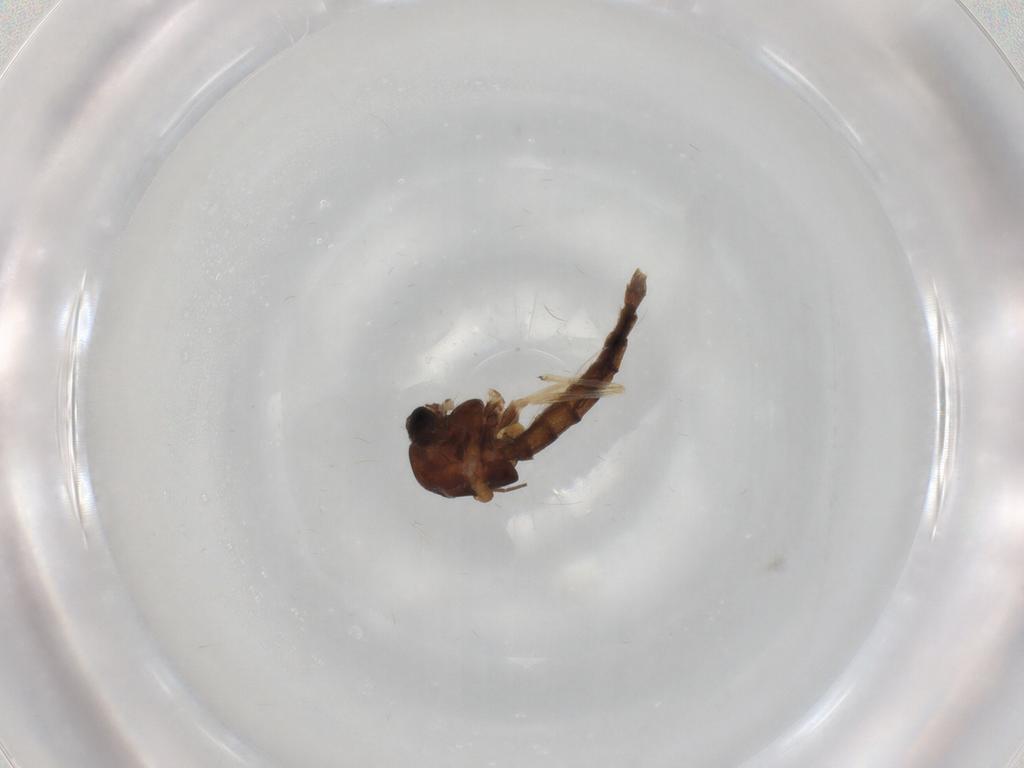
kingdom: Animalia
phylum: Arthropoda
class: Insecta
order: Diptera
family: Chironomidae
